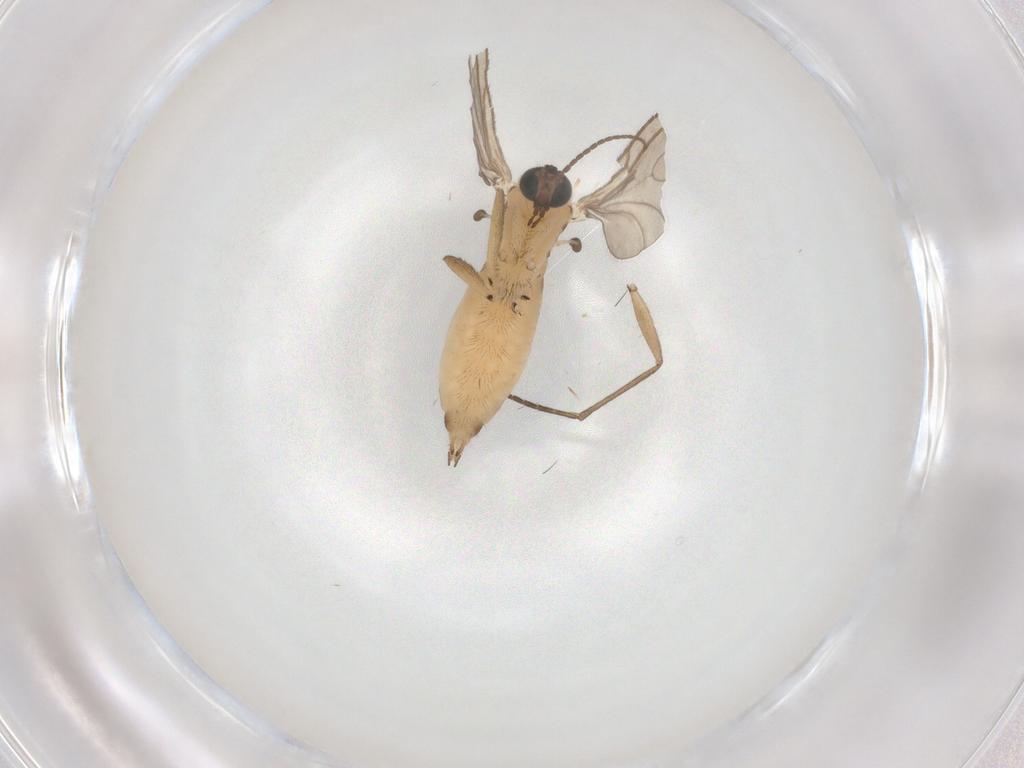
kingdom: Animalia
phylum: Arthropoda
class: Insecta
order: Diptera
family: Sciaridae
